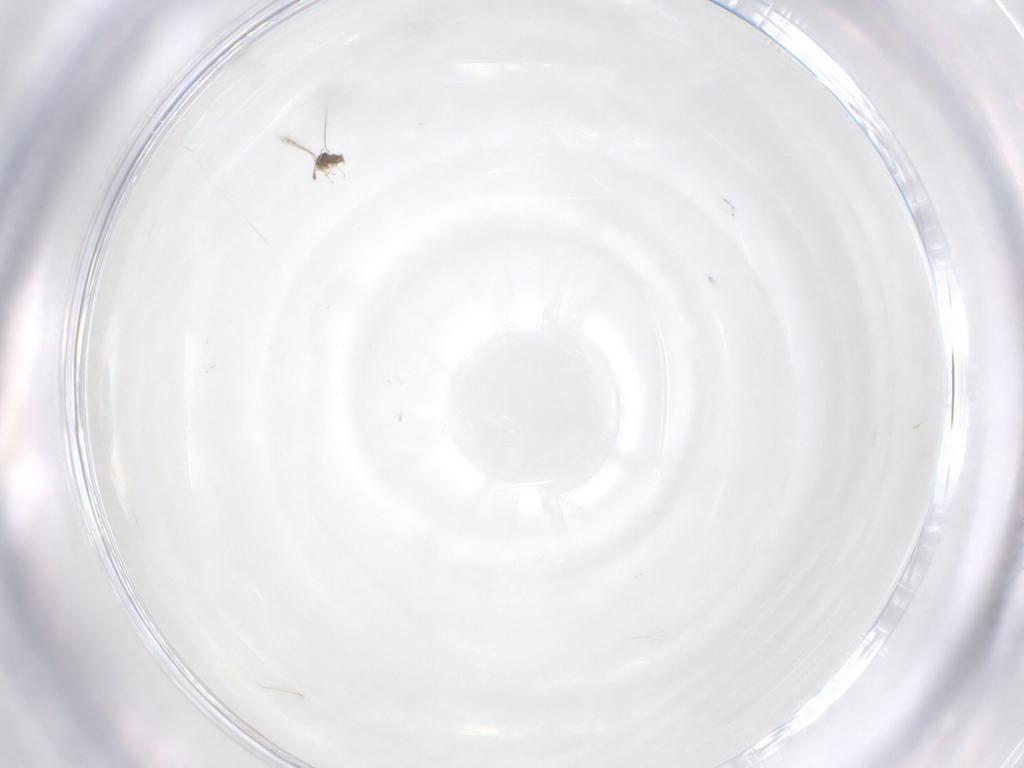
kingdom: Animalia
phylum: Arthropoda
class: Insecta
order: Hymenoptera
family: Mymaridae
